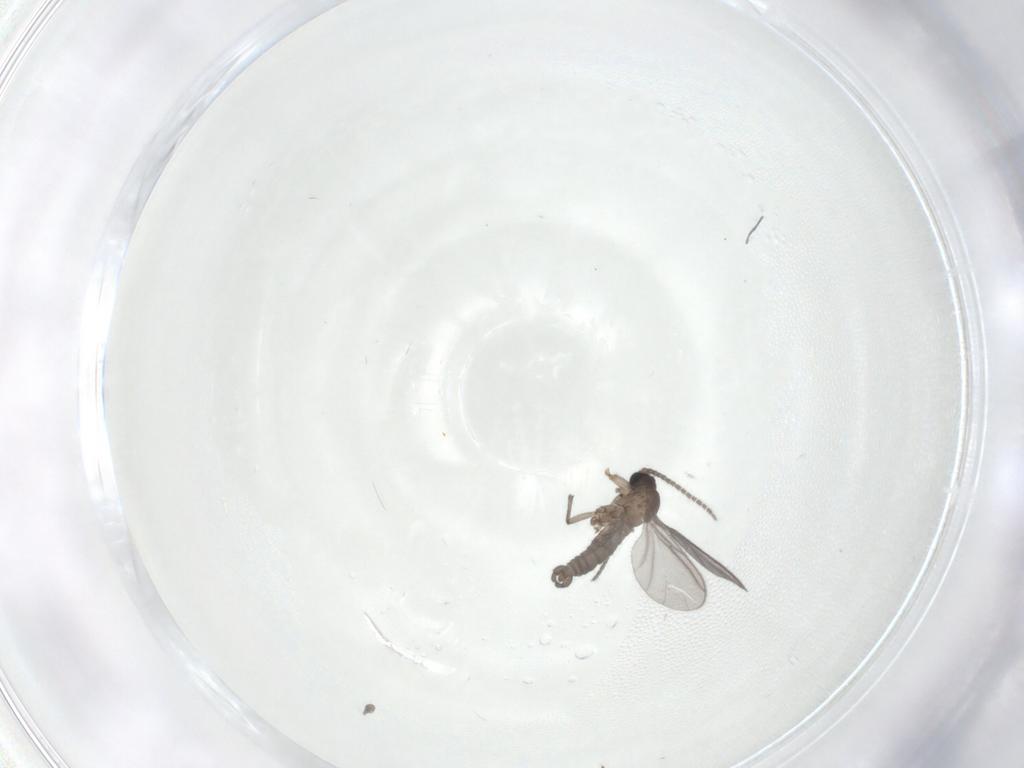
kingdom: Animalia
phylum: Arthropoda
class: Insecta
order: Diptera
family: Sciaridae
